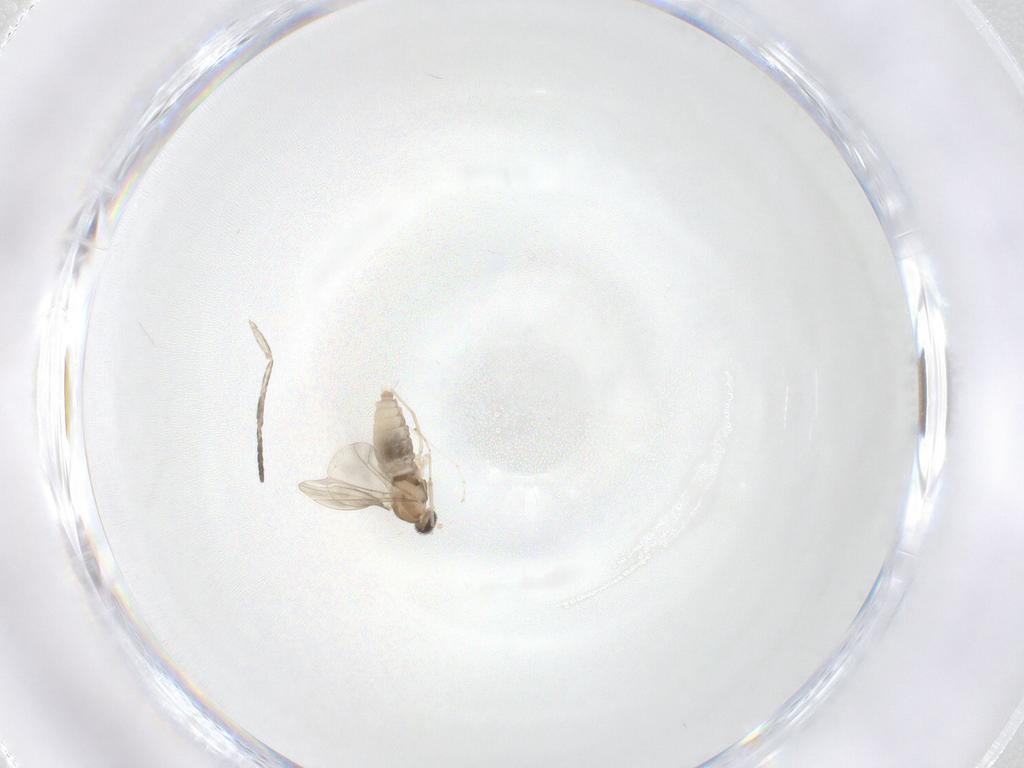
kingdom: Animalia
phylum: Arthropoda
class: Insecta
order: Diptera
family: Cecidomyiidae
